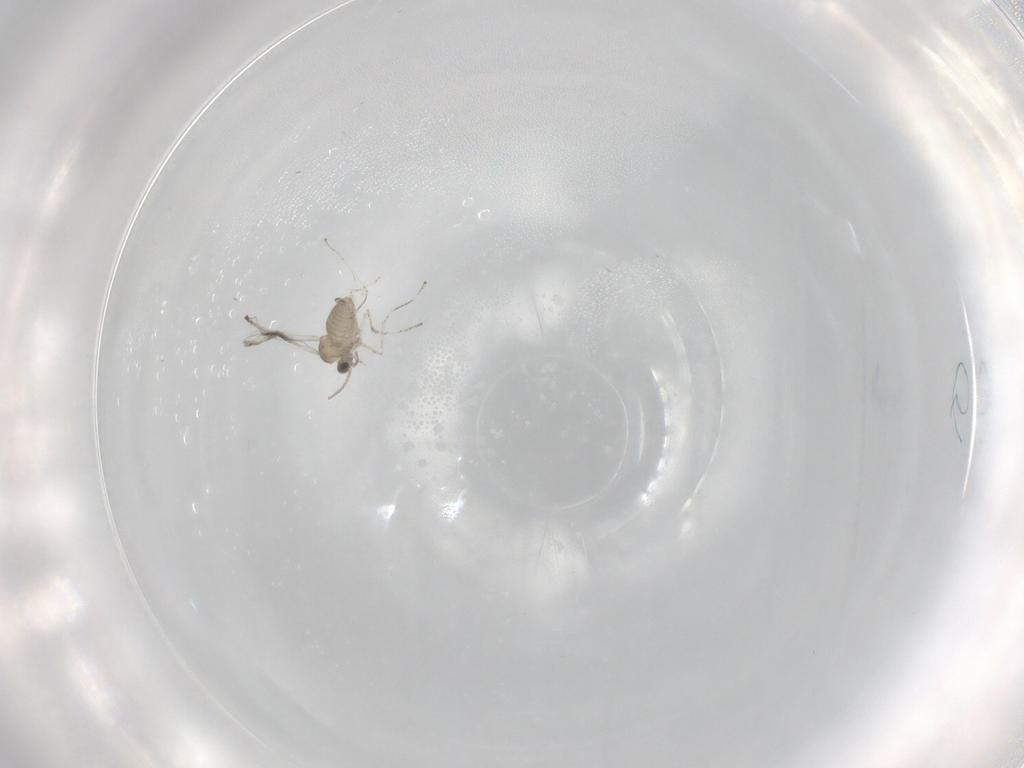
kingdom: Animalia
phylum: Arthropoda
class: Insecta
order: Diptera
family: Cecidomyiidae
